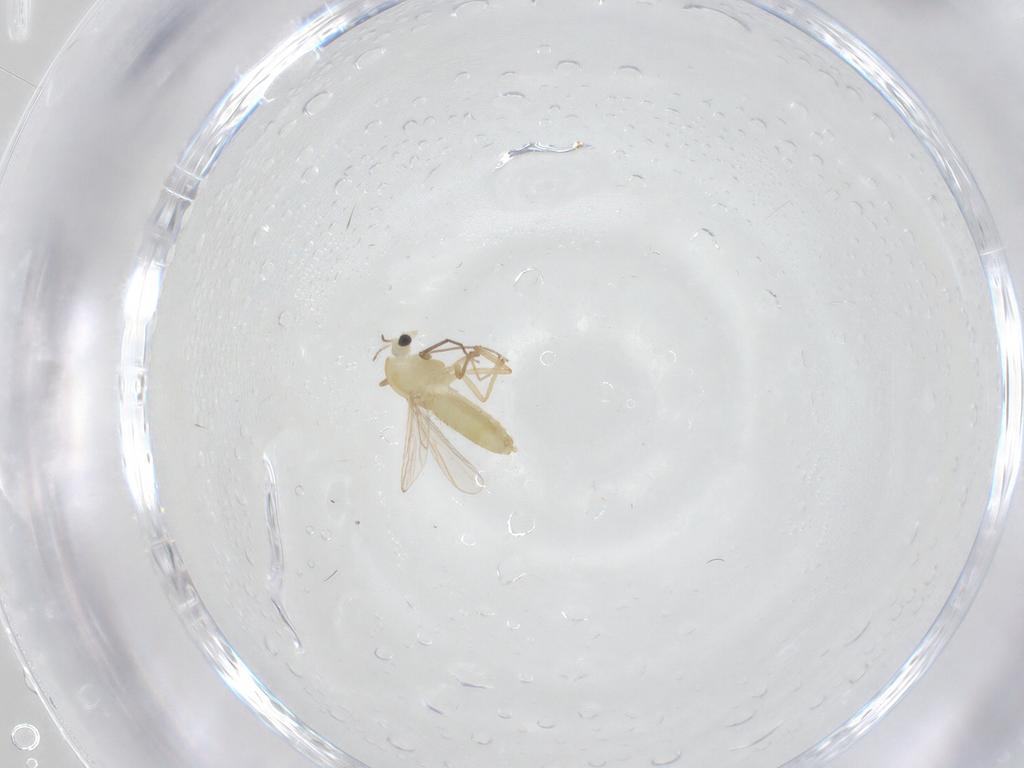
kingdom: Animalia
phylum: Arthropoda
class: Insecta
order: Diptera
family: Chironomidae
